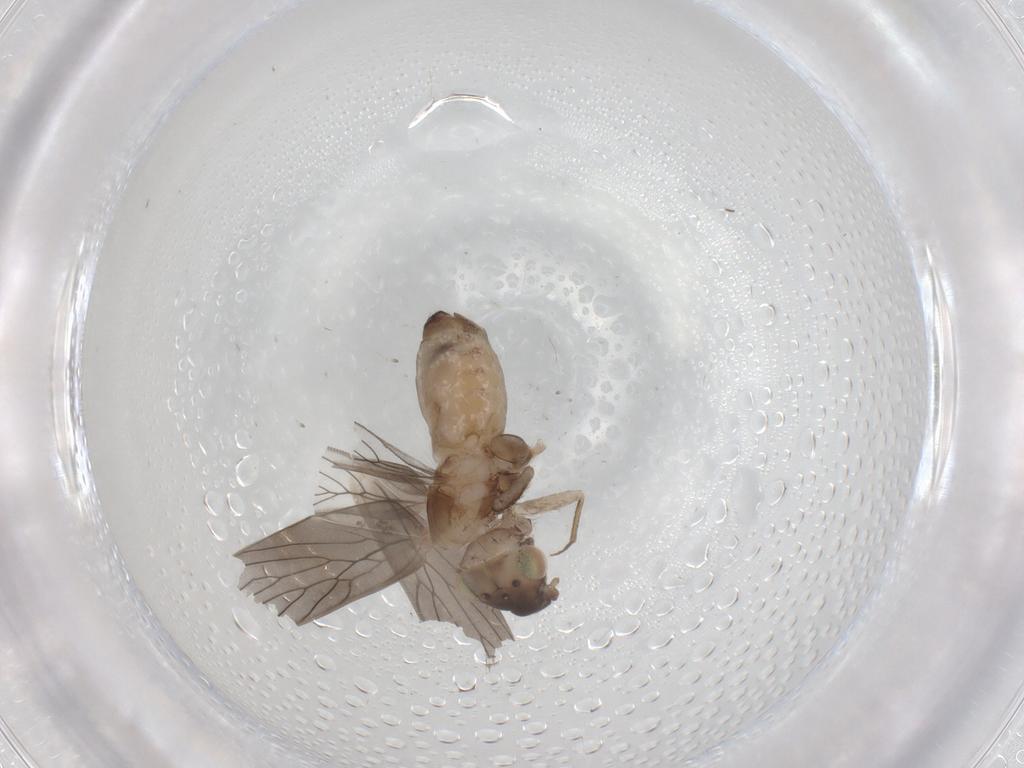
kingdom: Animalia
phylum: Arthropoda
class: Insecta
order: Psocodea
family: Lepidopsocidae
